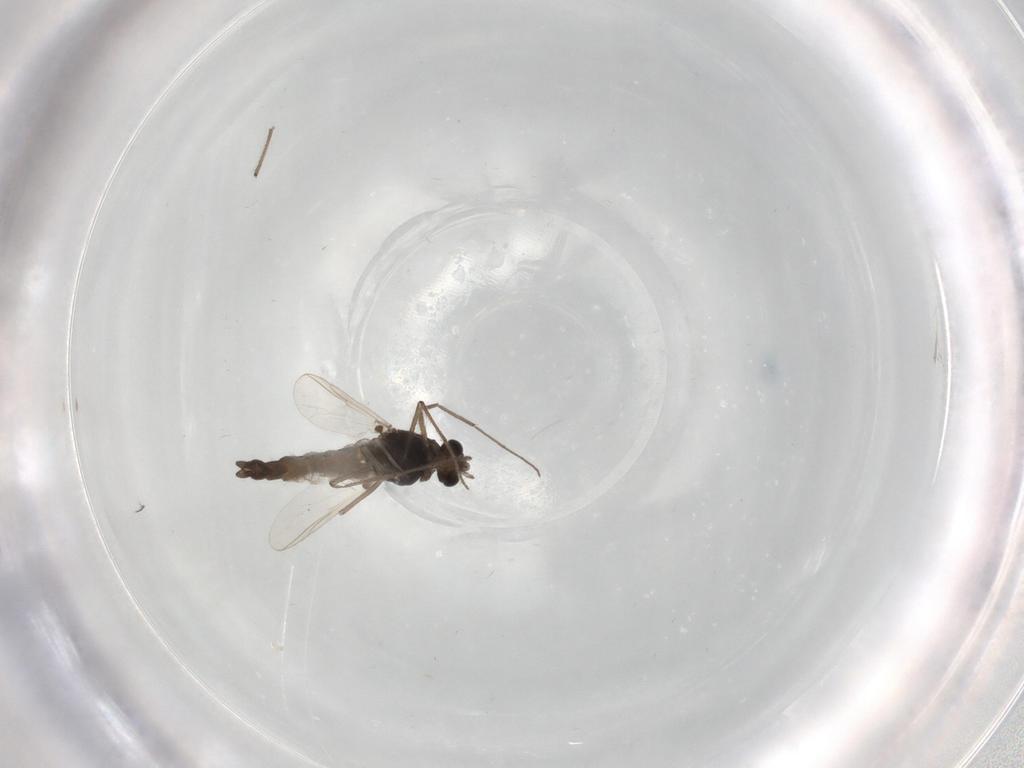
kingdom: Animalia
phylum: Arthropoda
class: Insecta
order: Diptera
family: Chironomidae
